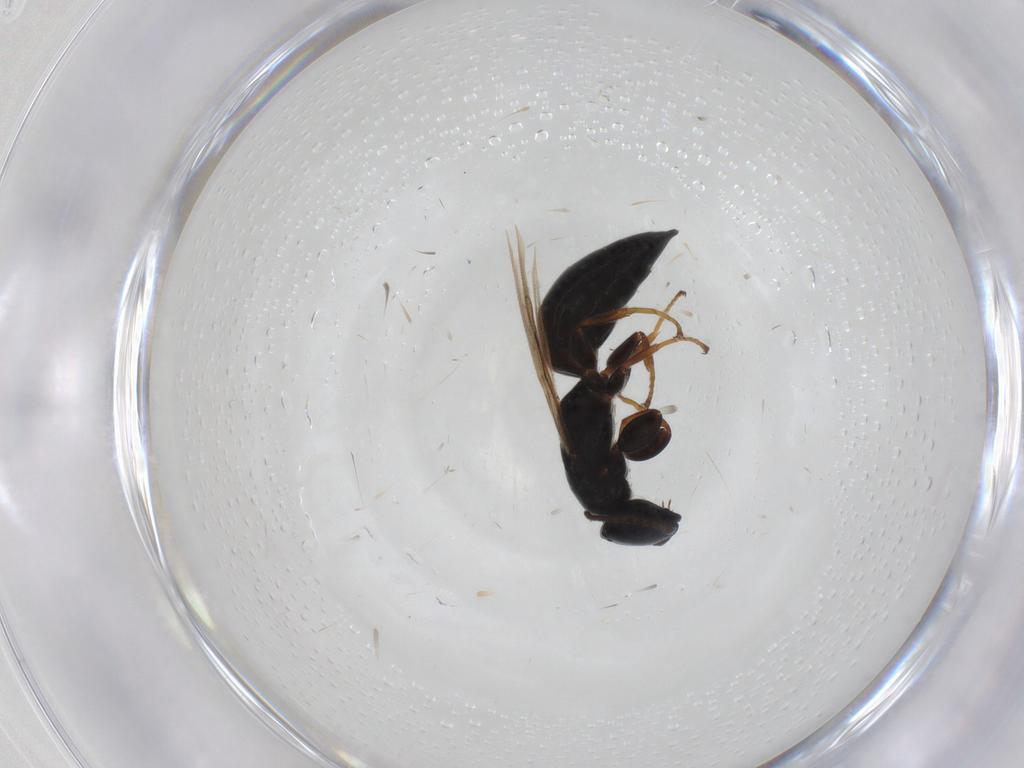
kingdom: Animalia
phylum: Arthropoda
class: Insecta
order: Hymenoptera
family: Bethylidae
